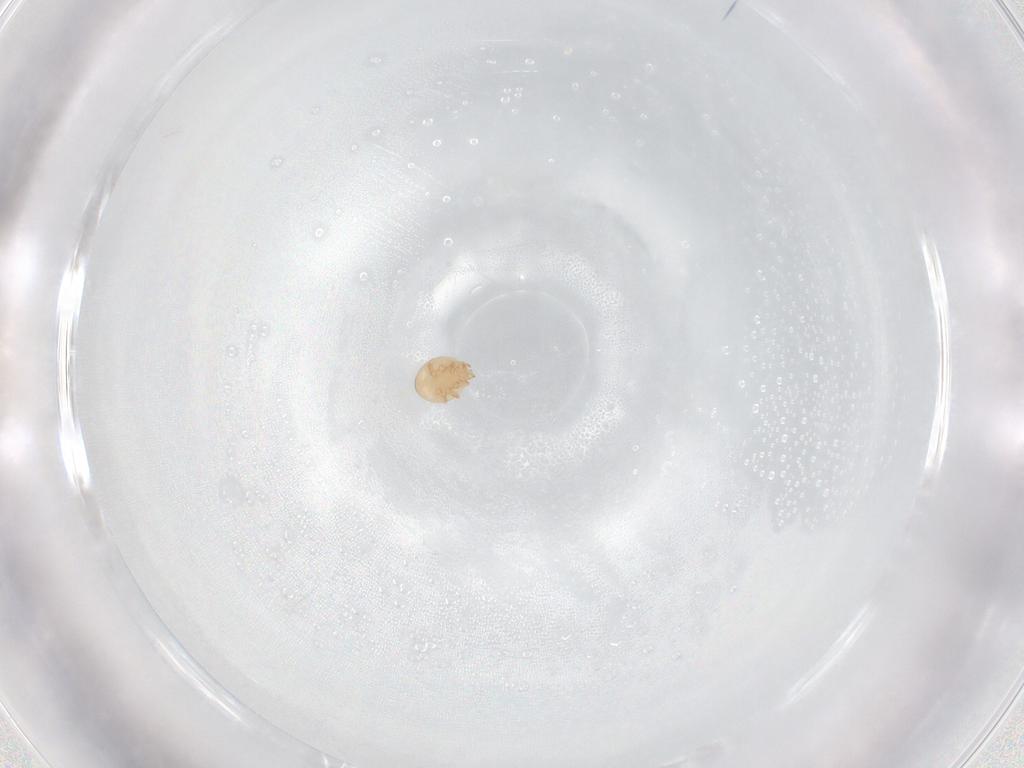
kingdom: Animalia
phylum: Arthropoda
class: Arachnida
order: Mesostigmata
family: Trematuridae
